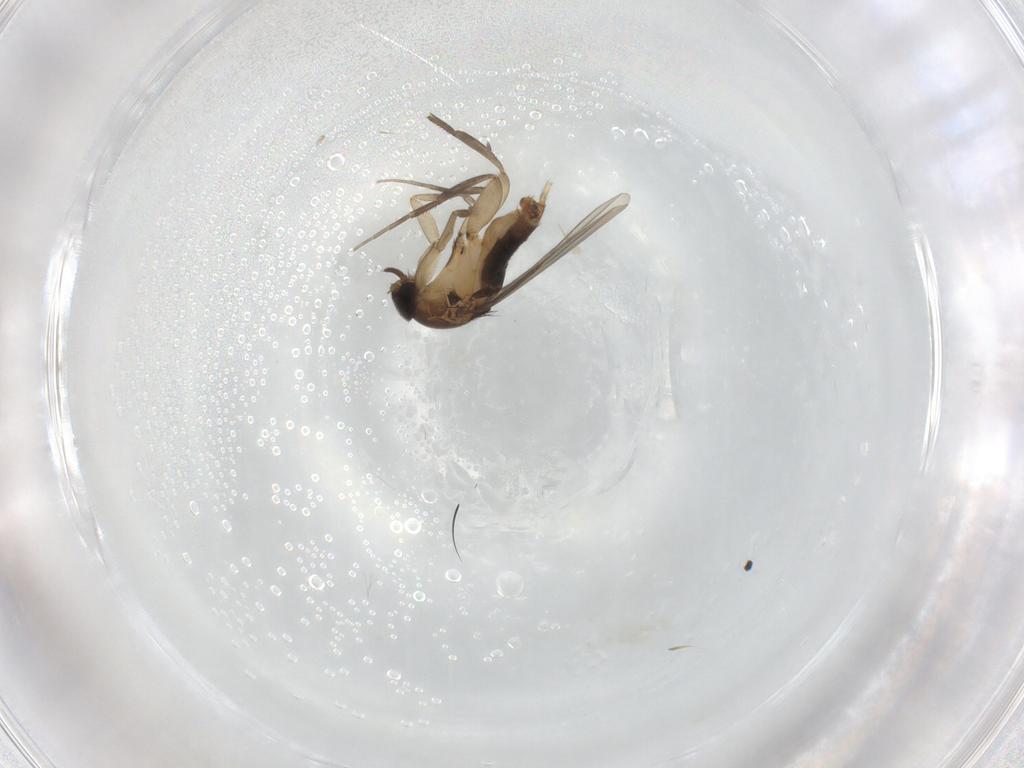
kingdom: Animalia
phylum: Arthropoda
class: Insecta
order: Diptera
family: Phoridae
